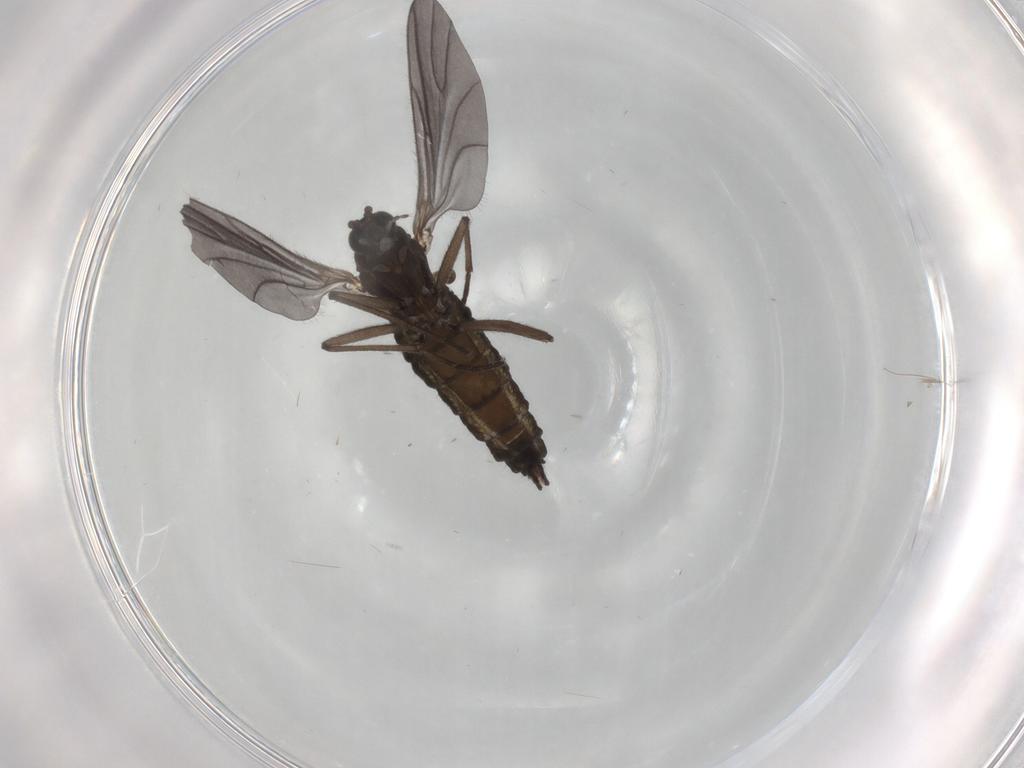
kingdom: Animalia
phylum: Arthropoda
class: Insecta
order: Diptera
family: Sciaridae
